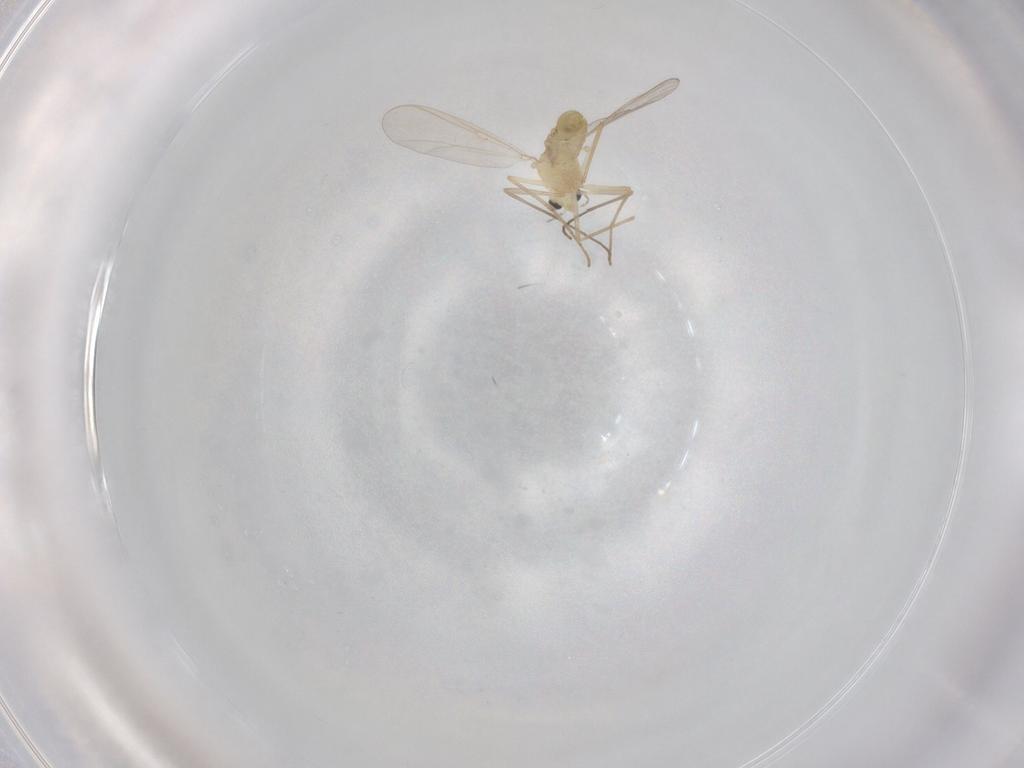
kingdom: Animalia
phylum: Arthropoda
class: Insecta
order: Diptera
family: Chironomidae
